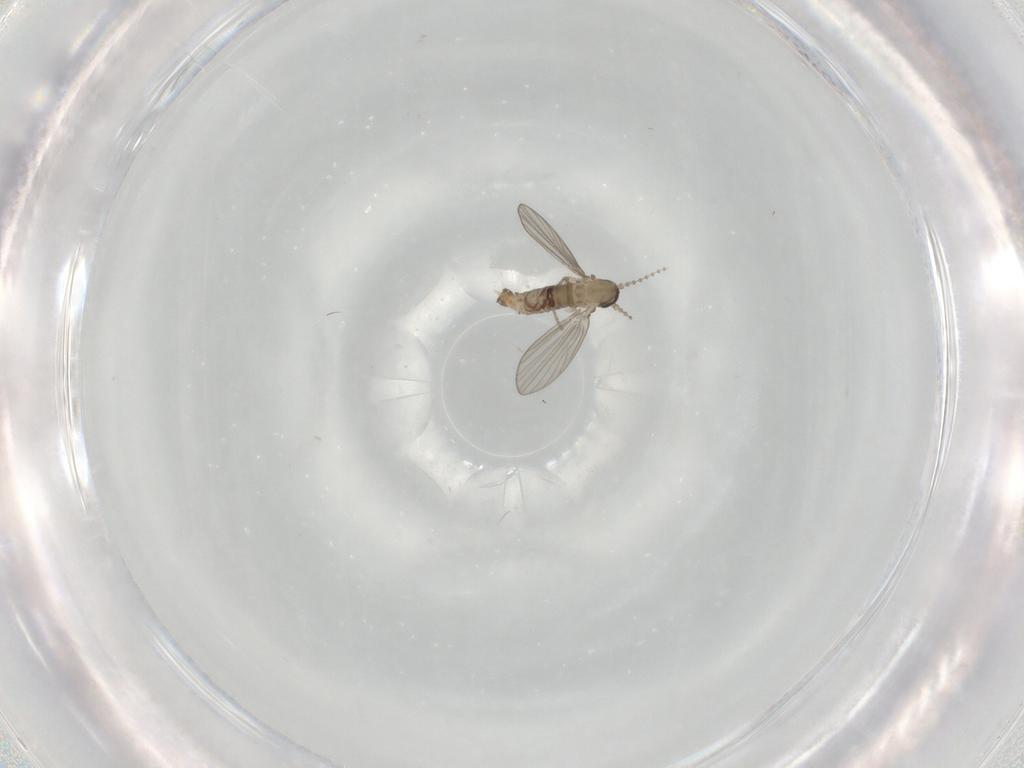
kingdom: Animalia
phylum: Arthropoda
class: Insecta
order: Diptera
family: Psychodidae
